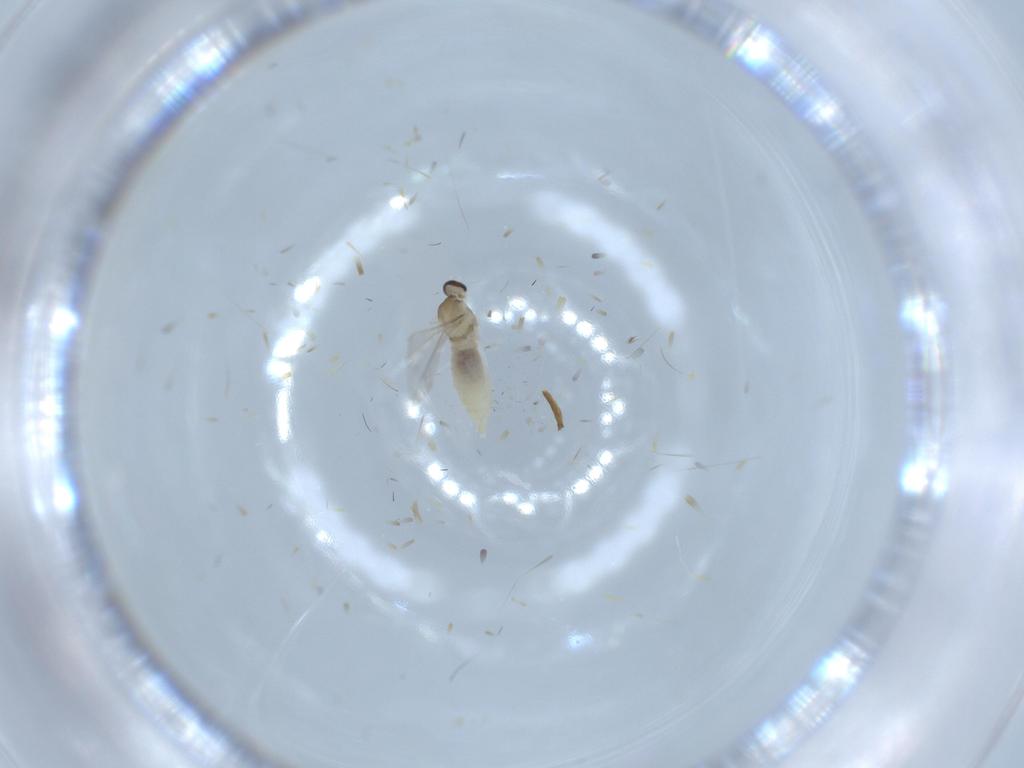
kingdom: Animalia
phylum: Arthropoda
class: Insecta
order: Diptera
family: Cecidomyiidae
